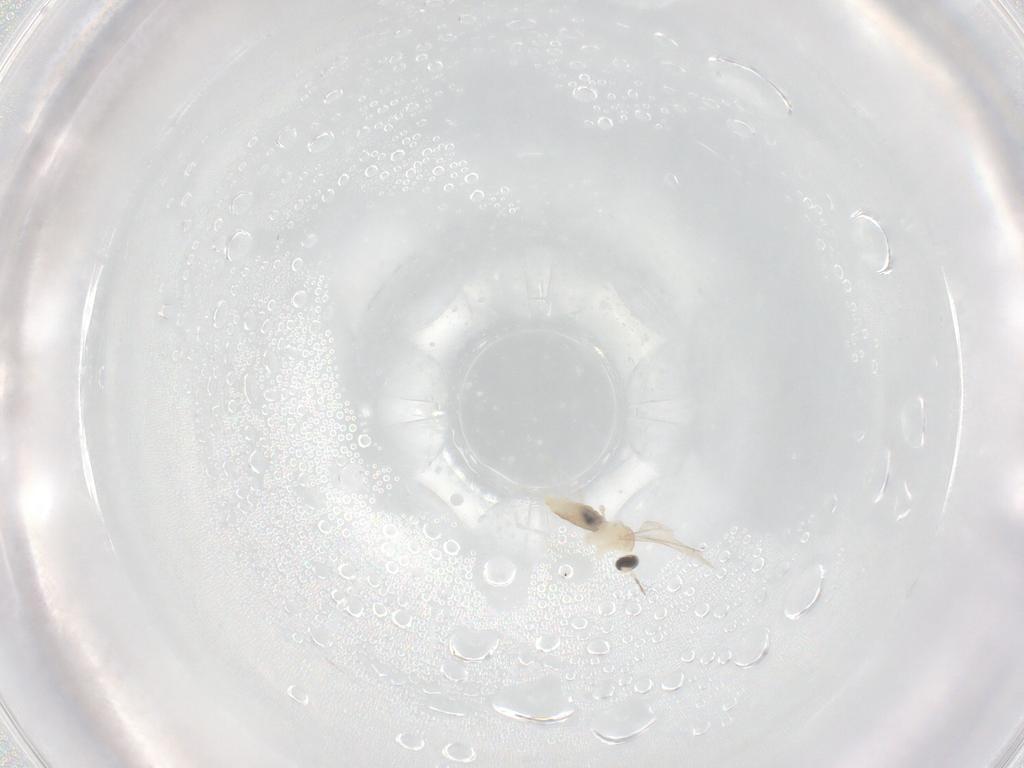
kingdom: Animalia
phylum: Arthropoda
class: Insecta
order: Diptera
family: Cecidomyiidae
